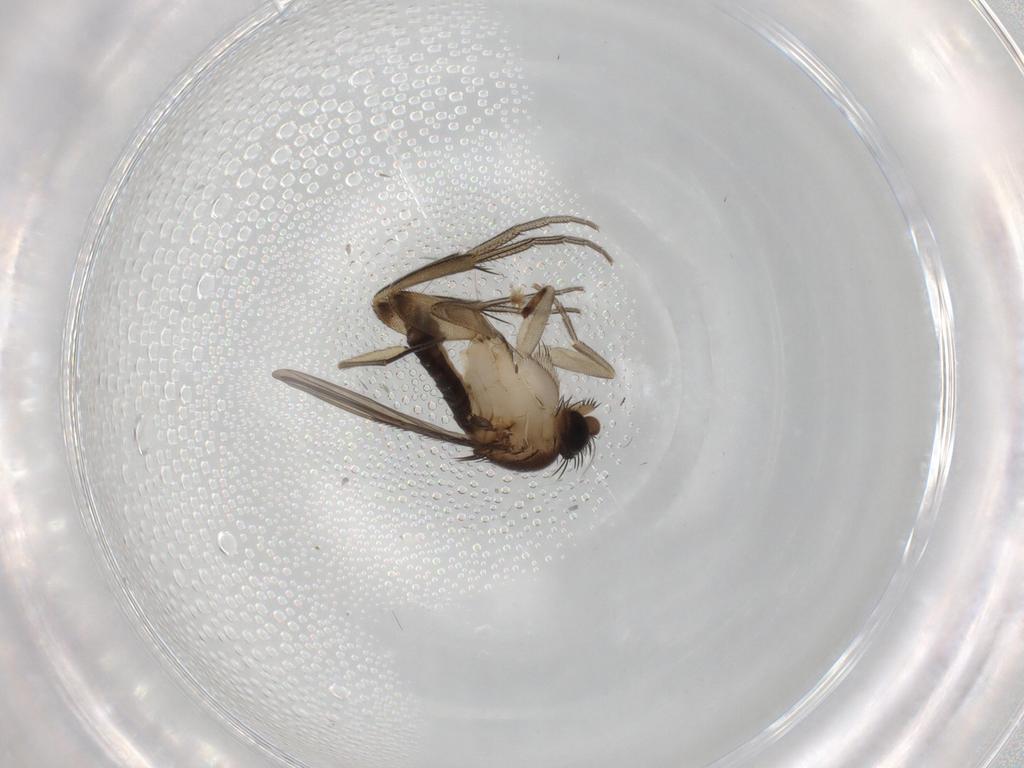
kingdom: Animalia
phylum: Arthropoda
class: Insecta
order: Diptera
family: Phoridae
